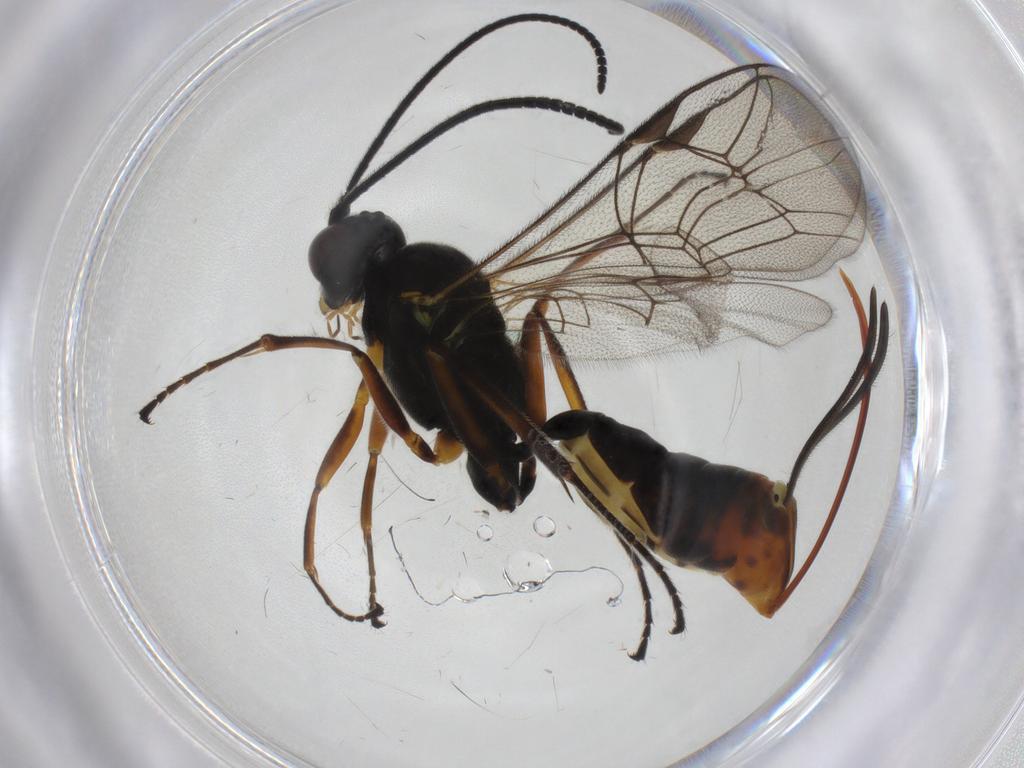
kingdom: Animalia
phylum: Arthropoda
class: Insecta
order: Hymenoptera
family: Ichneumonidae
